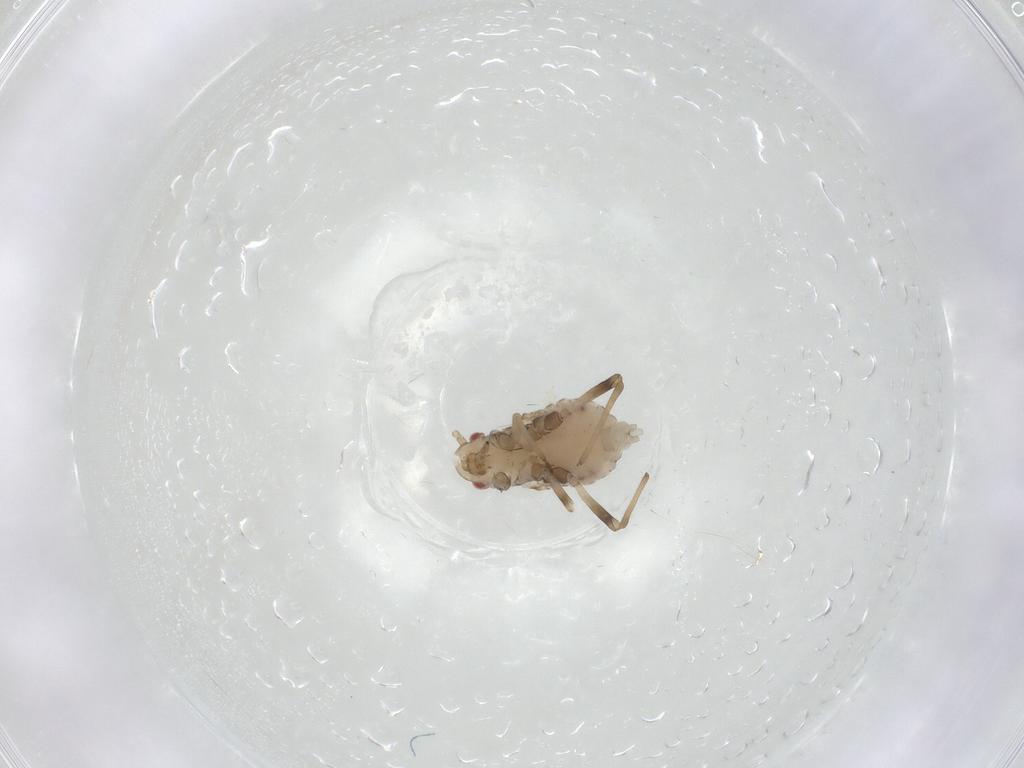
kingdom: Animalia
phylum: Arthropoda
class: Insecta
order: Hemiptera
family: Aphididae
